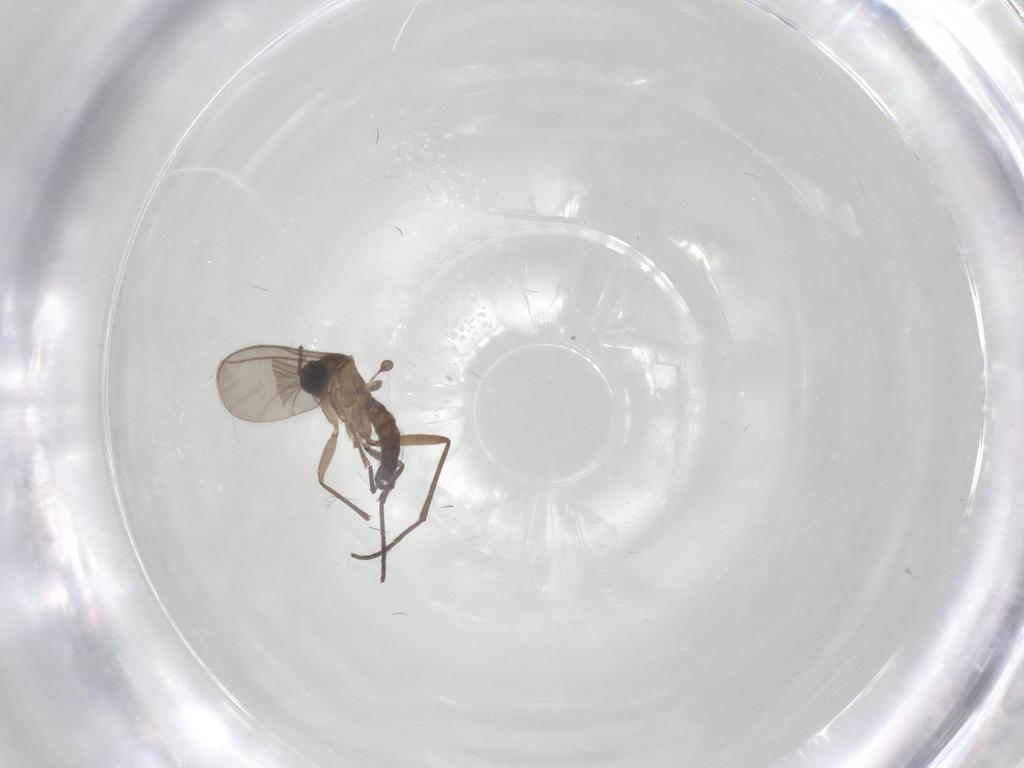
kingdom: Animalia
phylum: Arthropoda
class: Insecta
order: Diptera
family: Sciaridae
